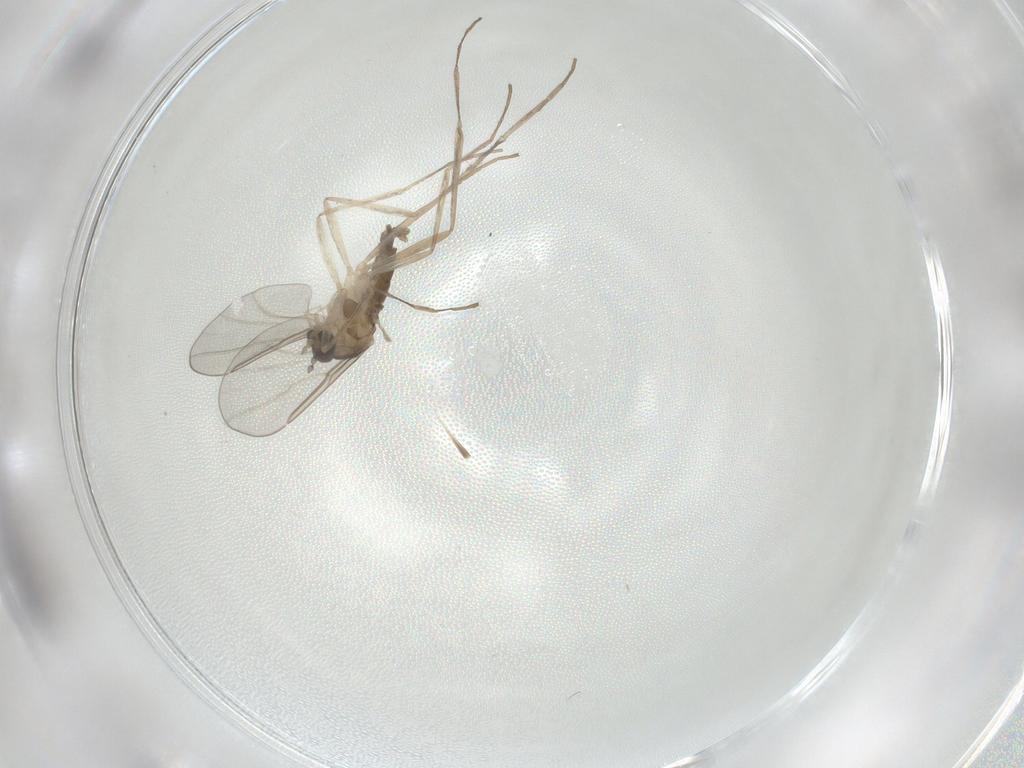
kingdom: Animalia
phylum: Arthropoda
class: Insecta
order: Diptera
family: Cecidomyiidae
